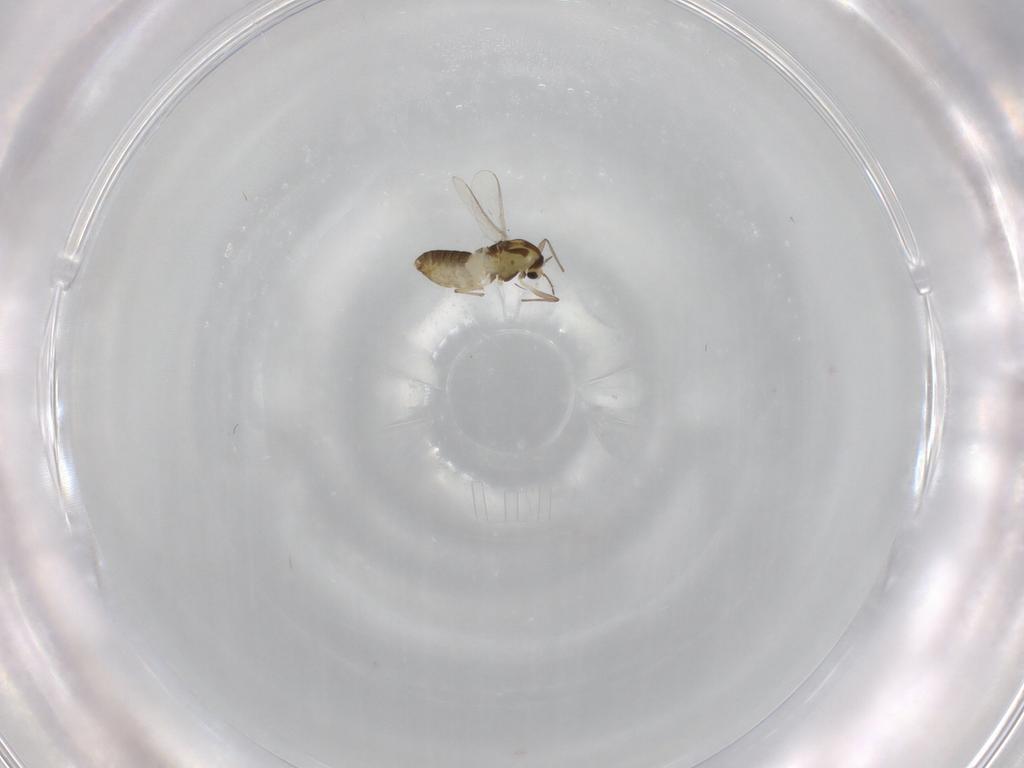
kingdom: Animalia
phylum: Arthropoda
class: Insecta
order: Diptera
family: Chironomidae
